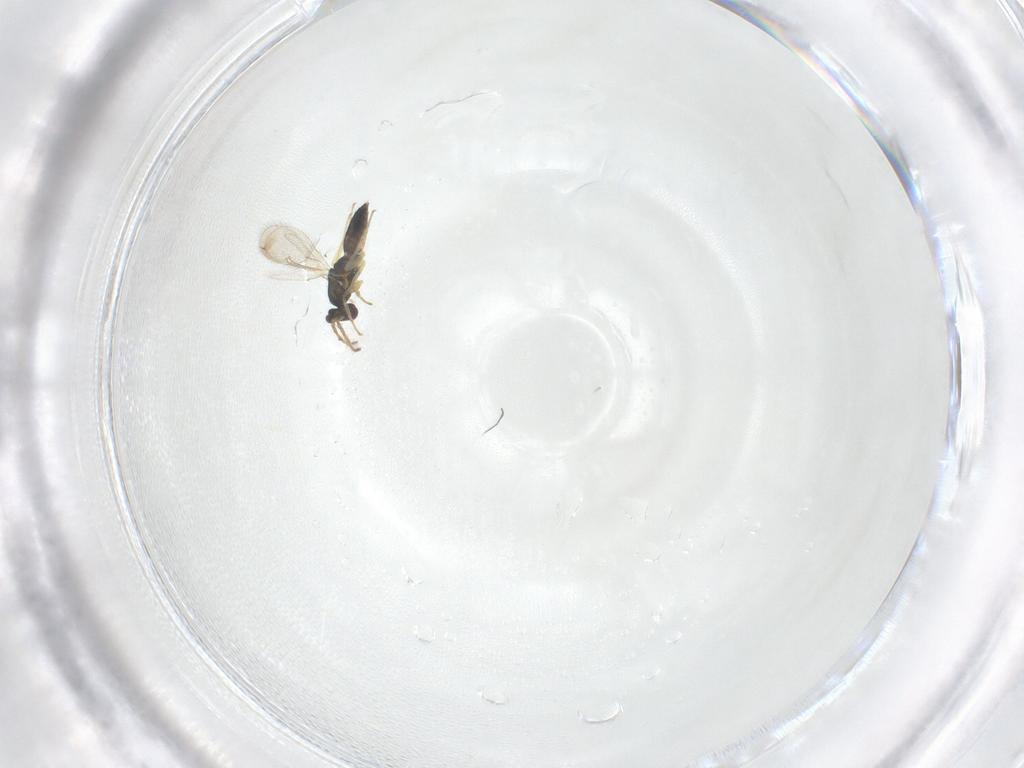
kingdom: Animalia
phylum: Arthropoda
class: Insecta
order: Hymenoptera
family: Eulophidae
